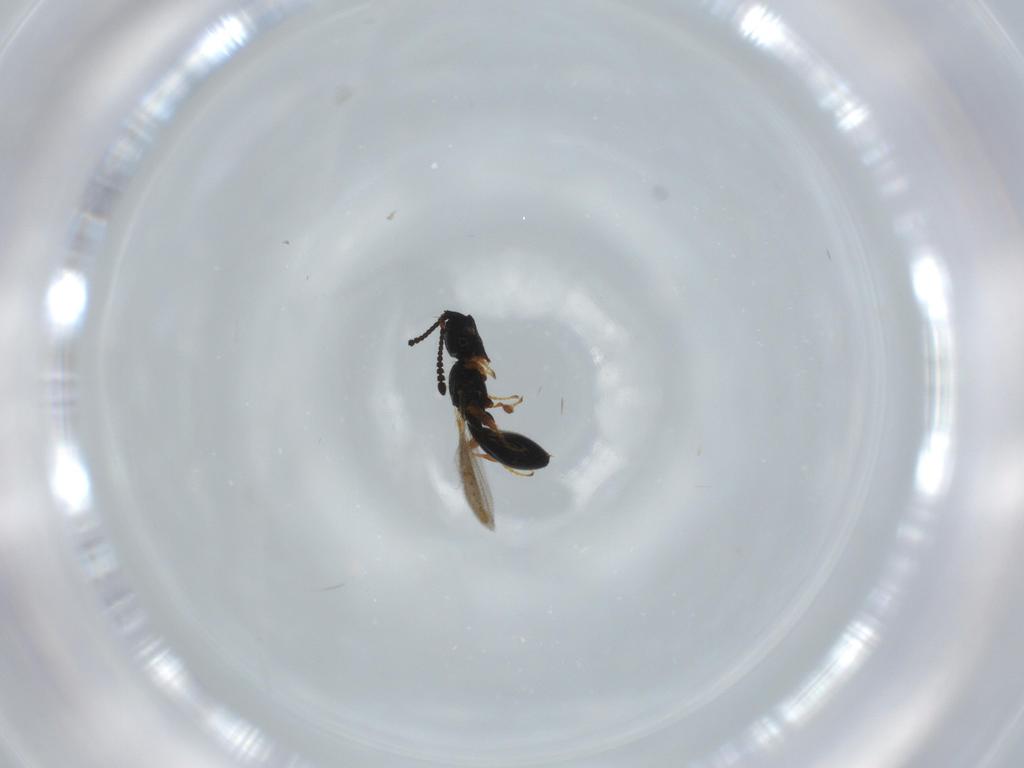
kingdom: Animalia
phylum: Arthropoda
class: Insecta
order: Hymenoptera
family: Diapriidae
